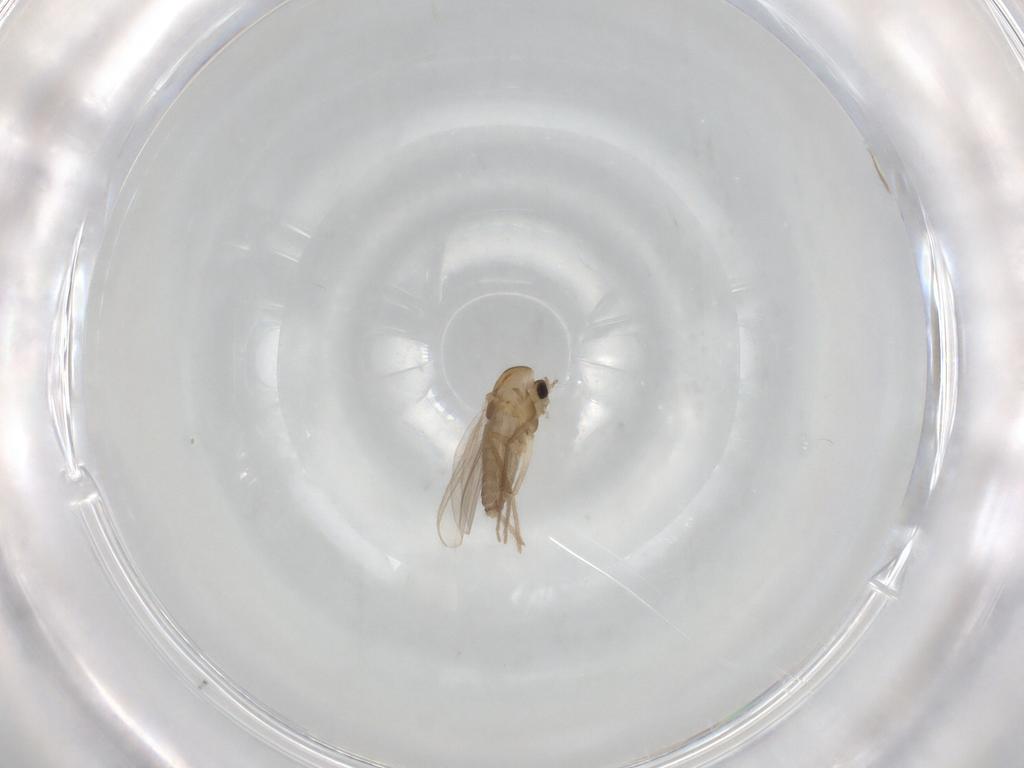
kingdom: Animalia
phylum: Arthropoda
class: Insecta
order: Diptera
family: Chironomidae
